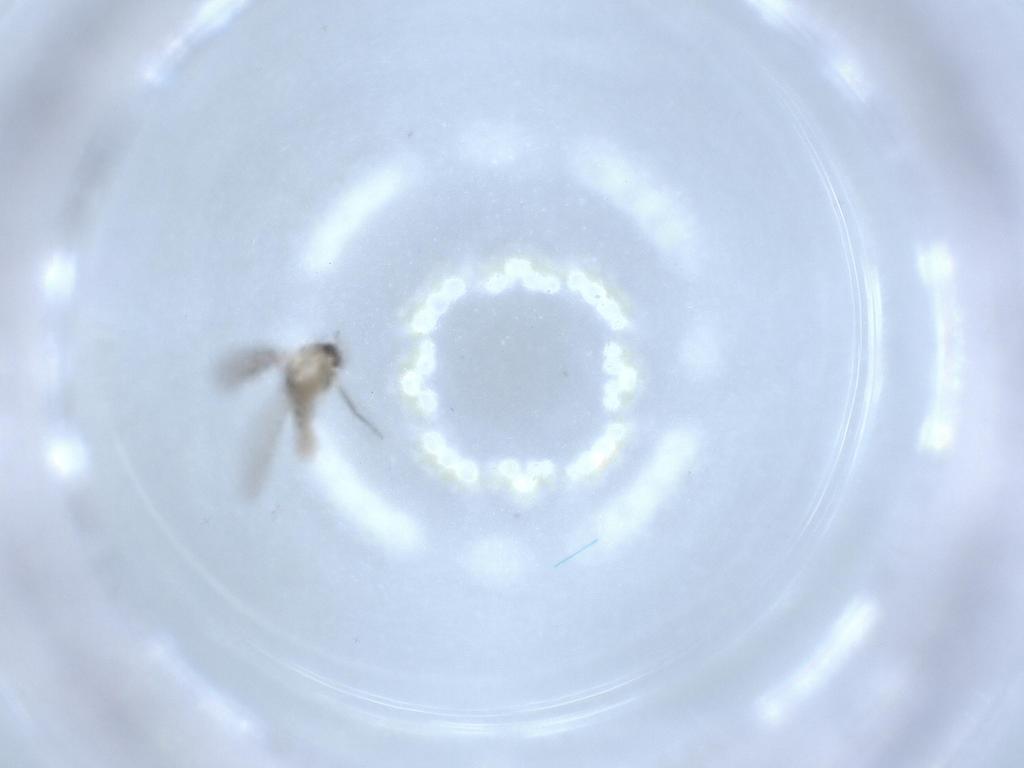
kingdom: Animalia
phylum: Arthropoda
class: Insecta
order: Diptera
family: Chironomidae
